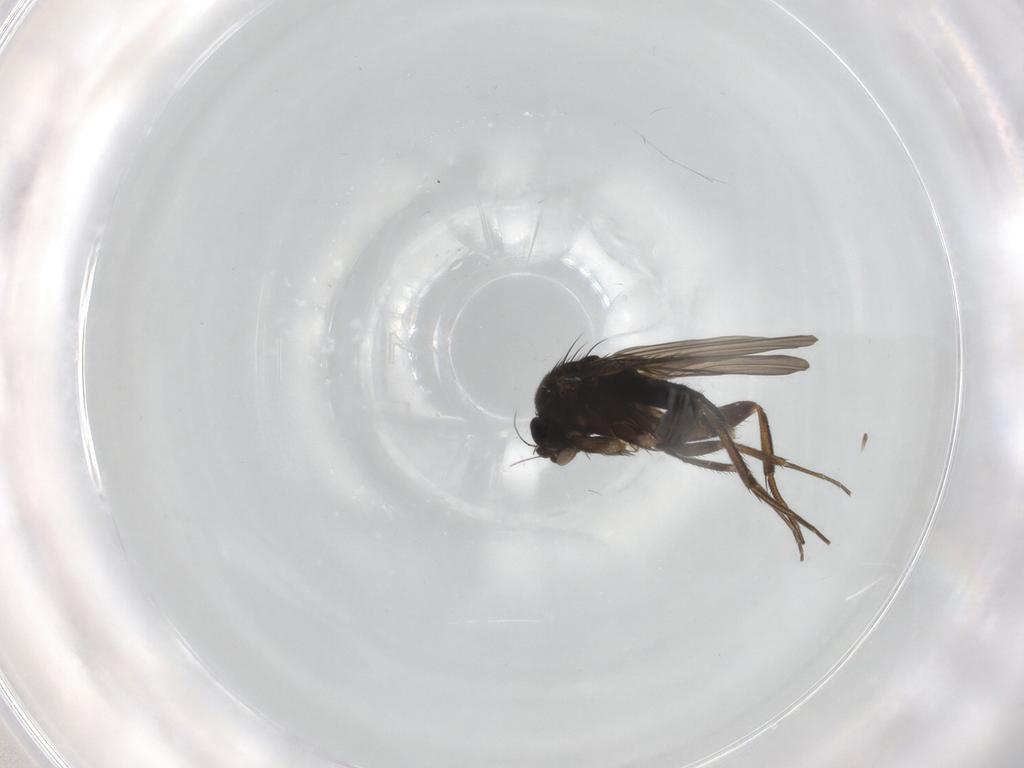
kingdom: Animalia
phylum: Arthropoda
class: Insecta
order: Diptera
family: Phoridae
